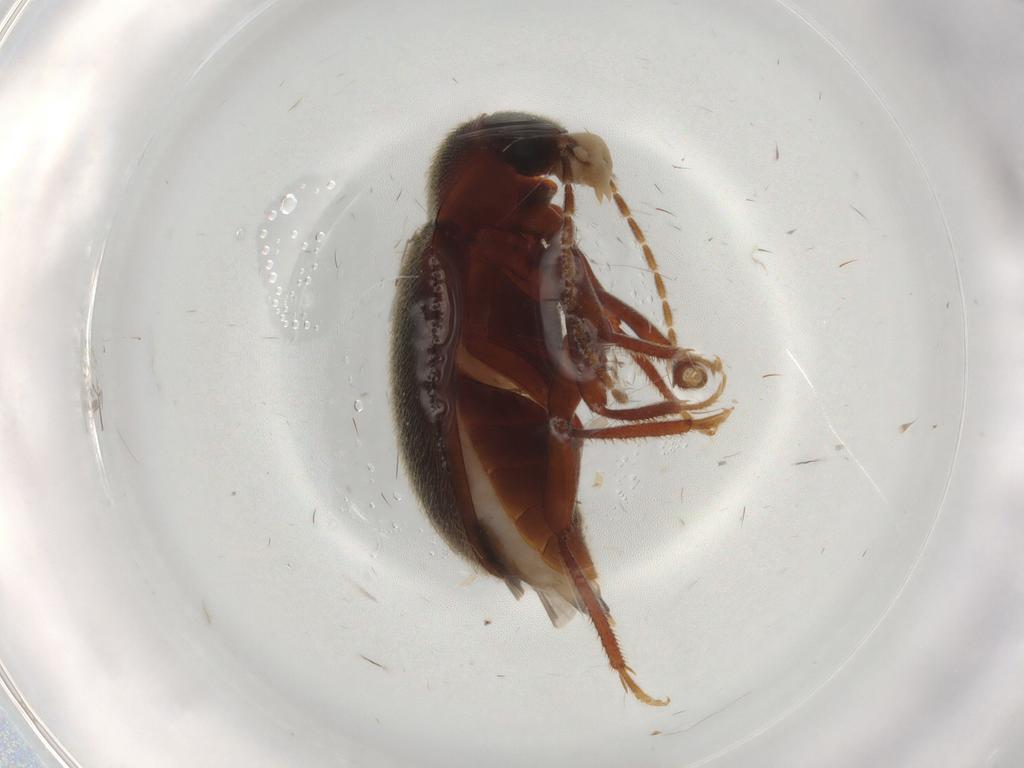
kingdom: Animalia
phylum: Arthropoda
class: Insecta
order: Coleoptera
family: Ptilodactylidae
